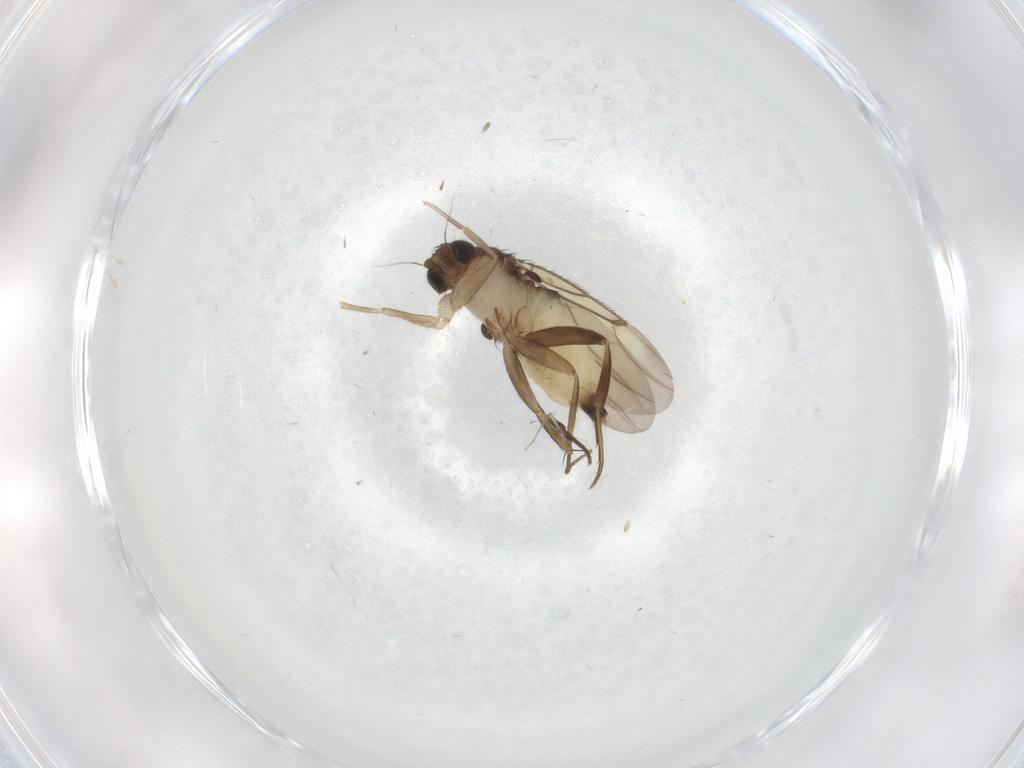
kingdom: Animalia
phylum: Arthropoda
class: Insecta
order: Diptera
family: Phoridae
